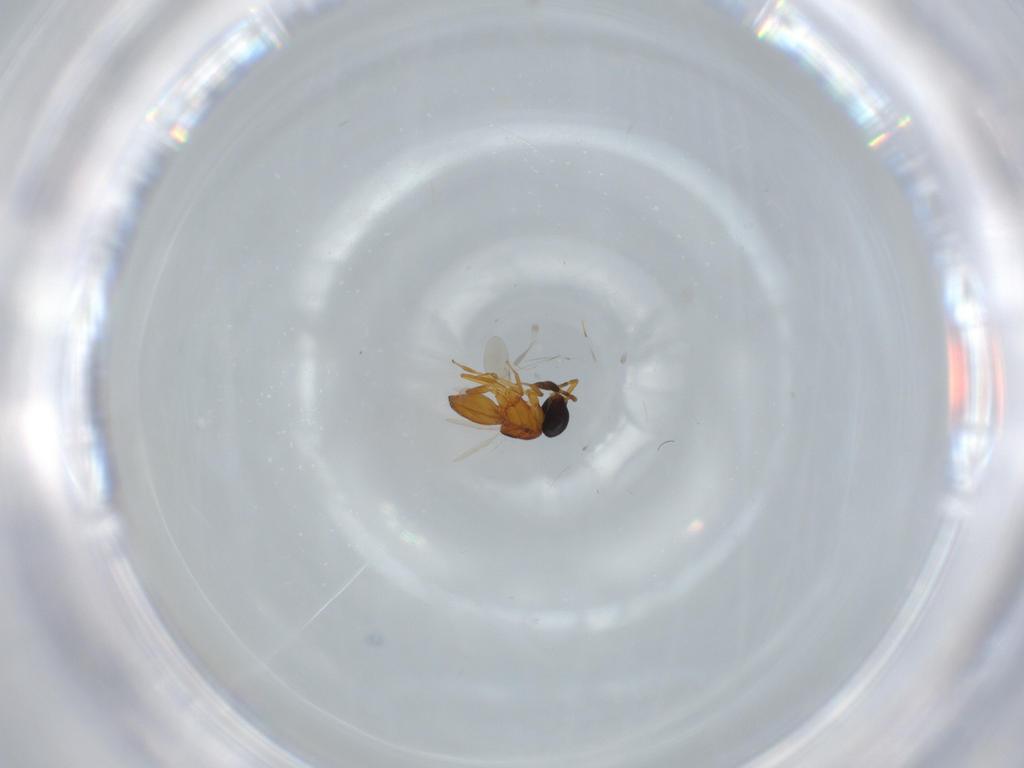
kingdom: Animalia
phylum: Arthropoda
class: Insecta
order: Hymenoptera
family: Scelionidae
